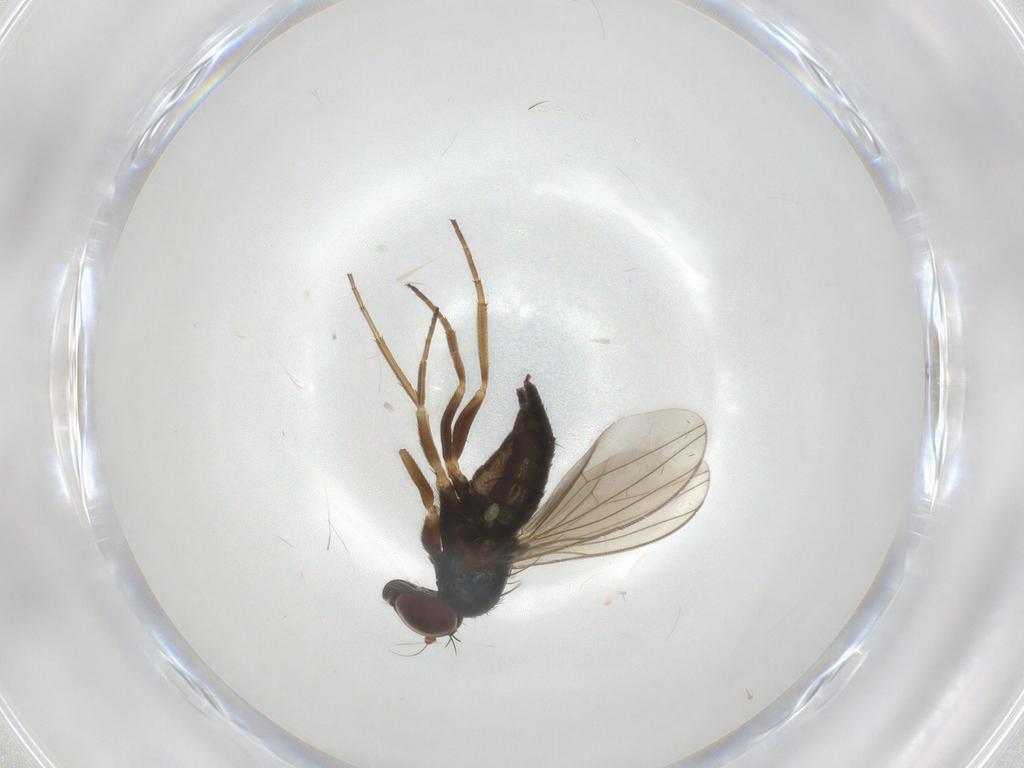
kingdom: Animalia
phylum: Arthropoda
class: Insecta
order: Diptera
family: Dolichopodidae
